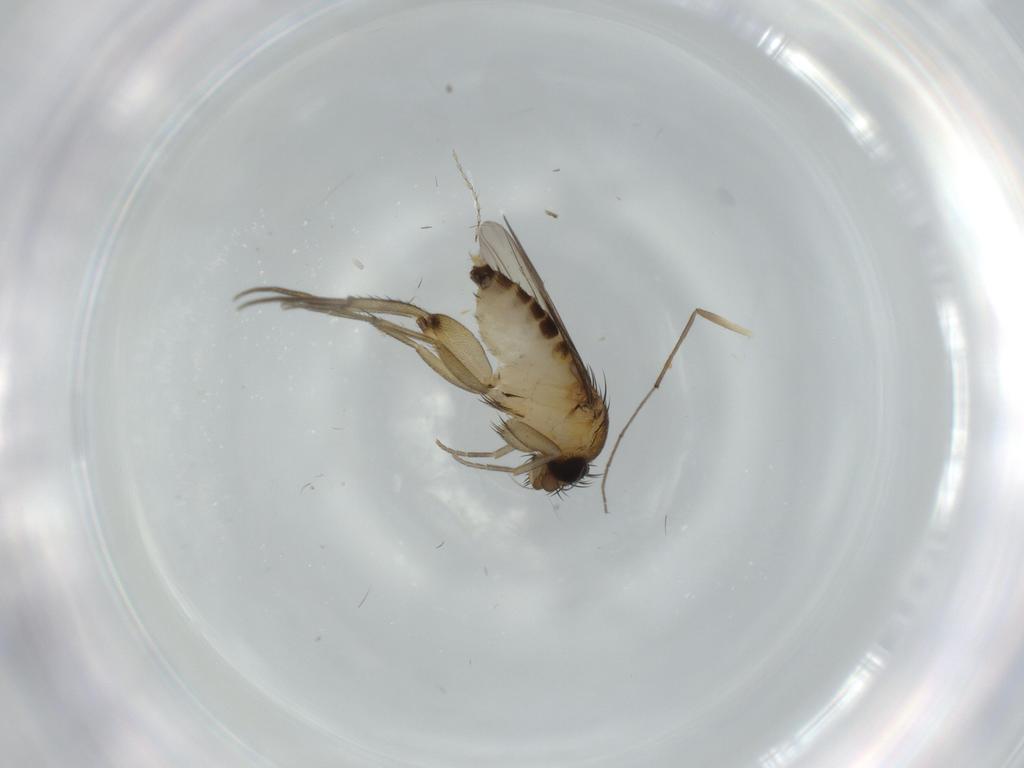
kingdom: Animalia
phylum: Arthropoda
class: Insecta
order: Diptera
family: Phoridae
